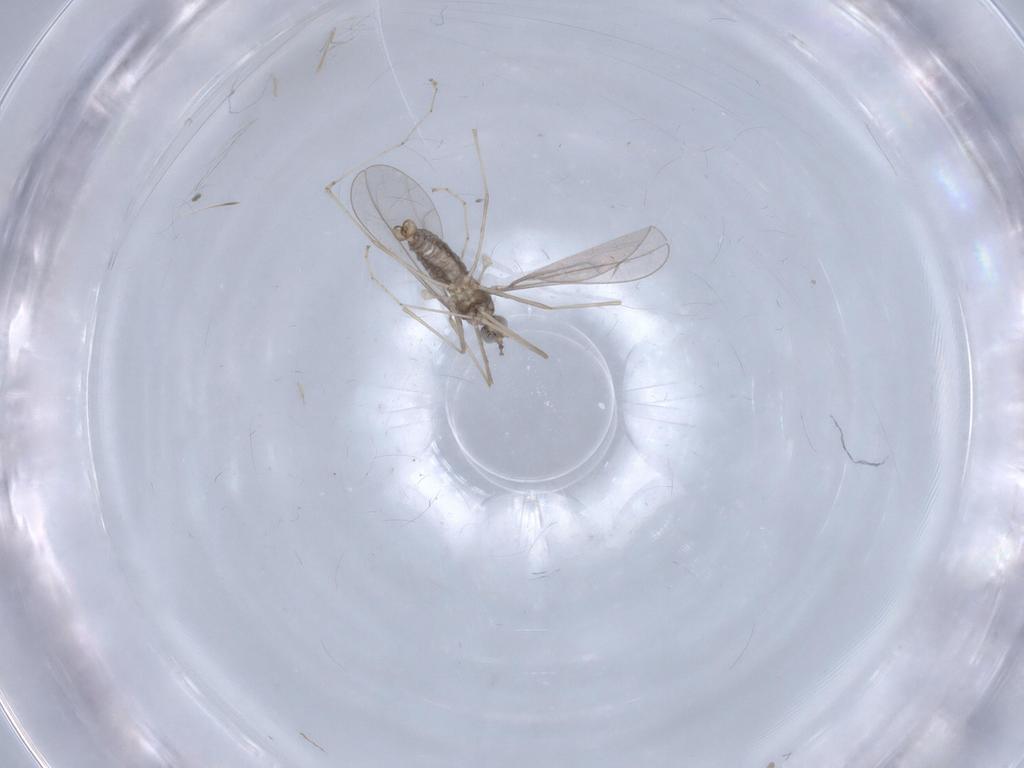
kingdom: Animalia
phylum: Arthropoda
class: Insecta
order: Diptera
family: Chironomidae
